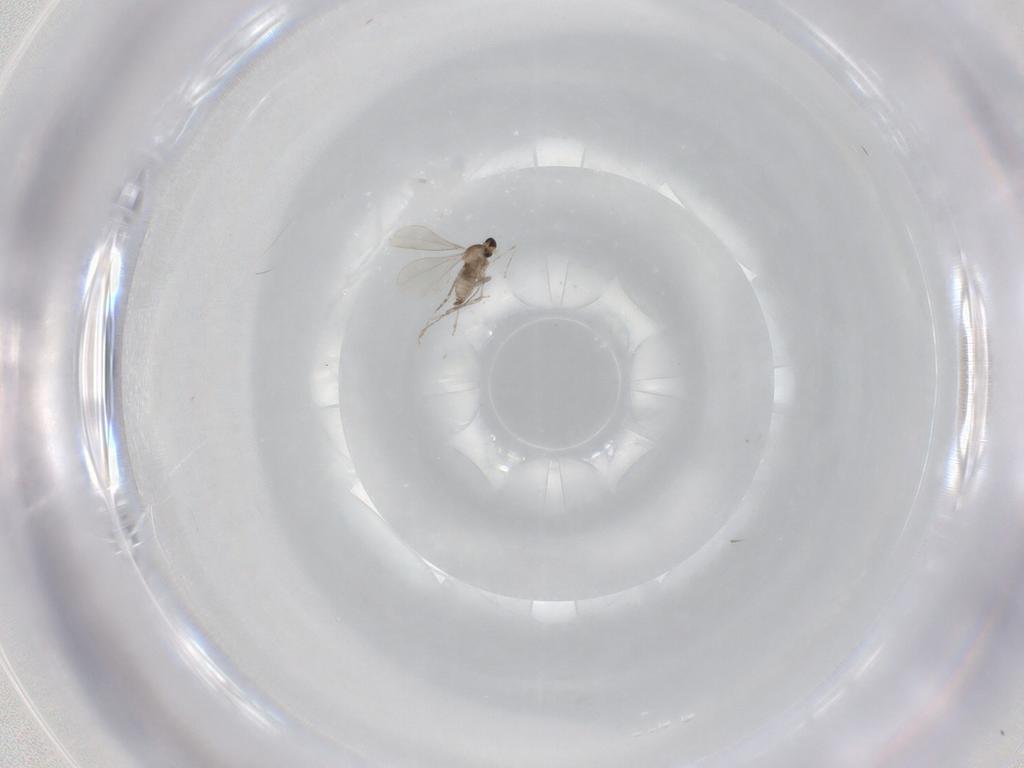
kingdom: Animalia
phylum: Arthropoda
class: Insecta
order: Diptera
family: Cecidomyiidae
